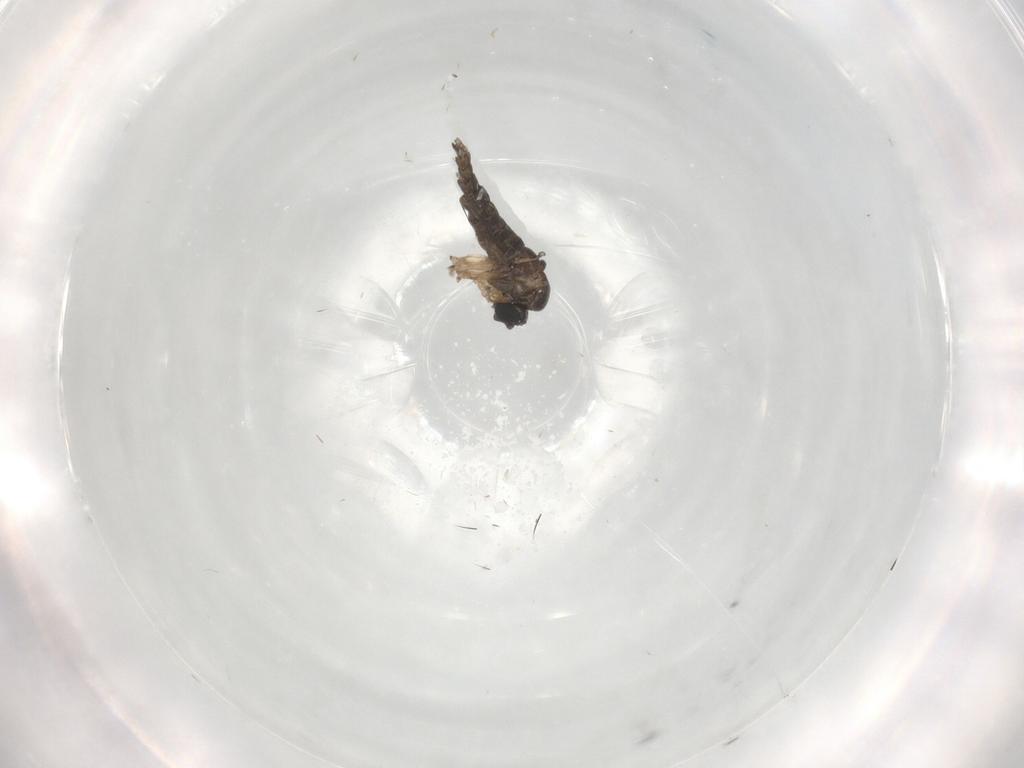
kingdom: Animalia
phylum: Arthropoda
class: Insecta
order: Diptera
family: Sciaridae
